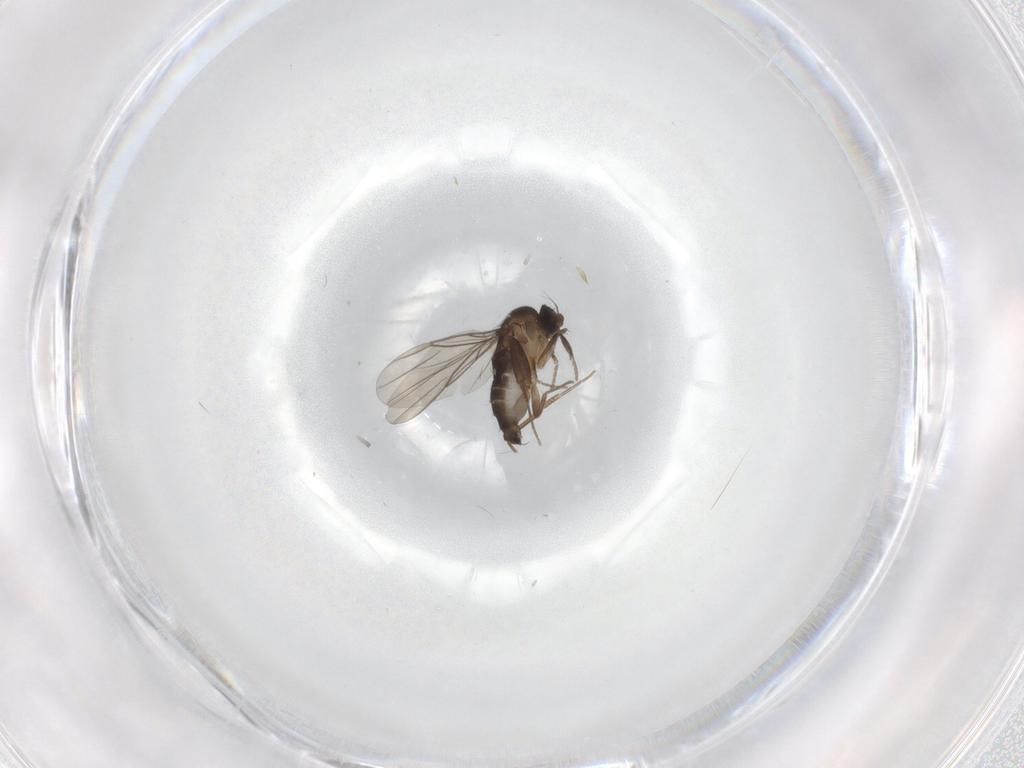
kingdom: Animalia
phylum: Arthropoda
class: Insecta
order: Diptera
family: Phoridae
